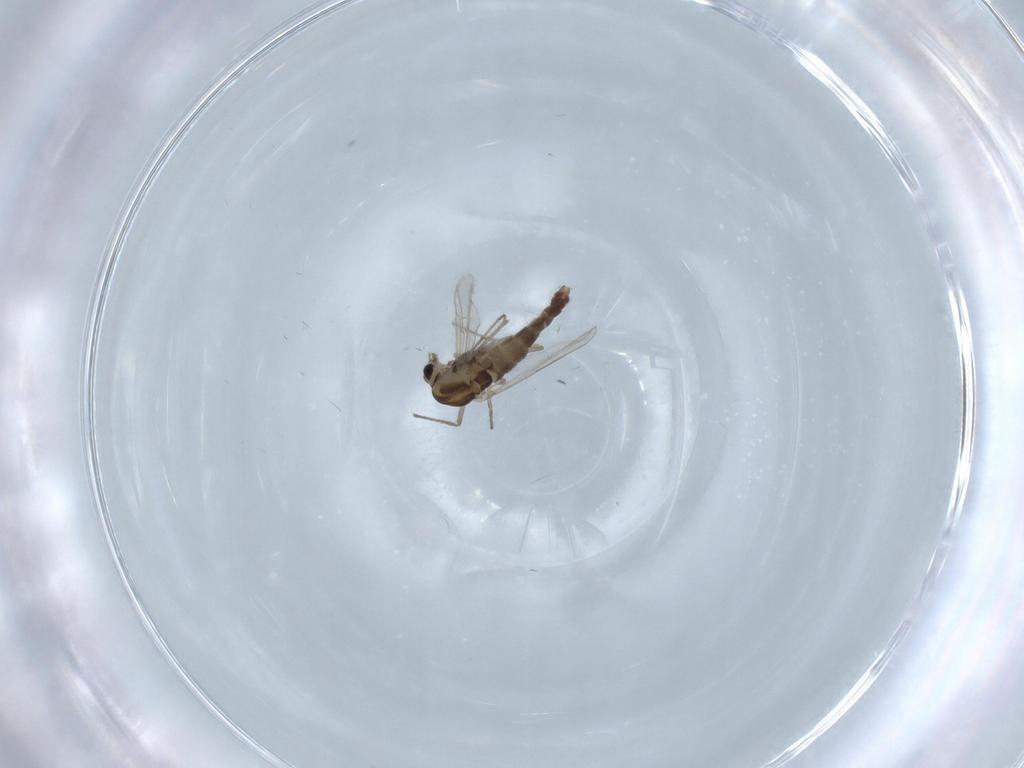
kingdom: Animalia
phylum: Arthropoda
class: Insecta
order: Diptera
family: Chironomidae
